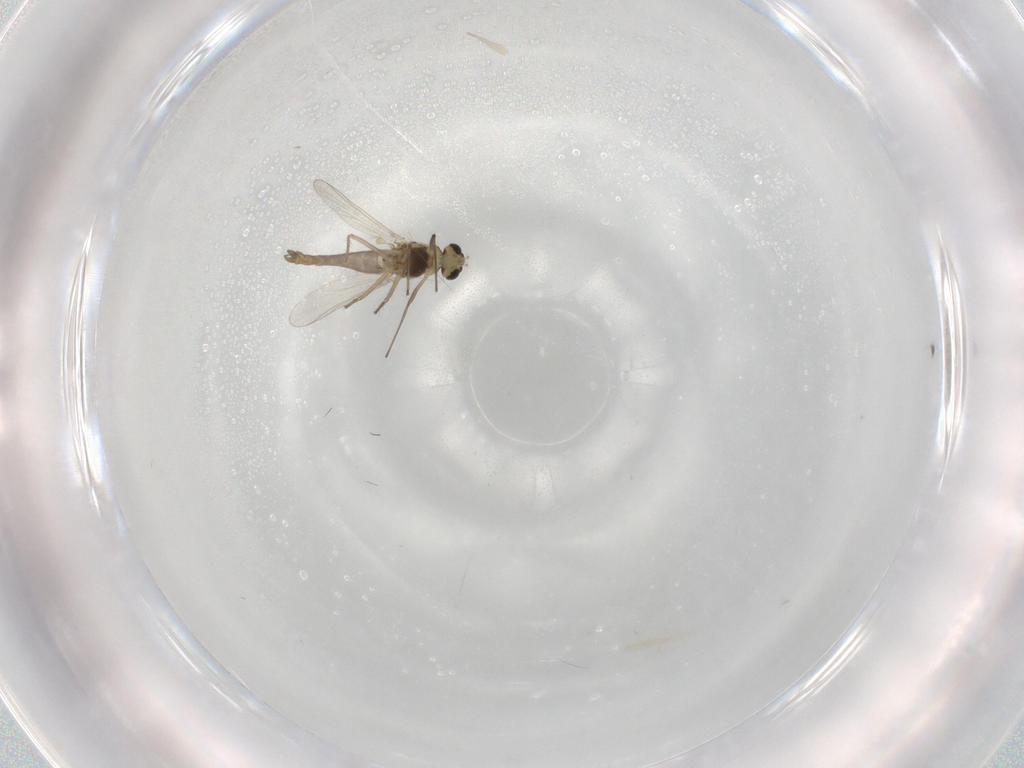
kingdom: Animalia
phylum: Arthropoda
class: Insecta
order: Diptera
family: Chironomidae
